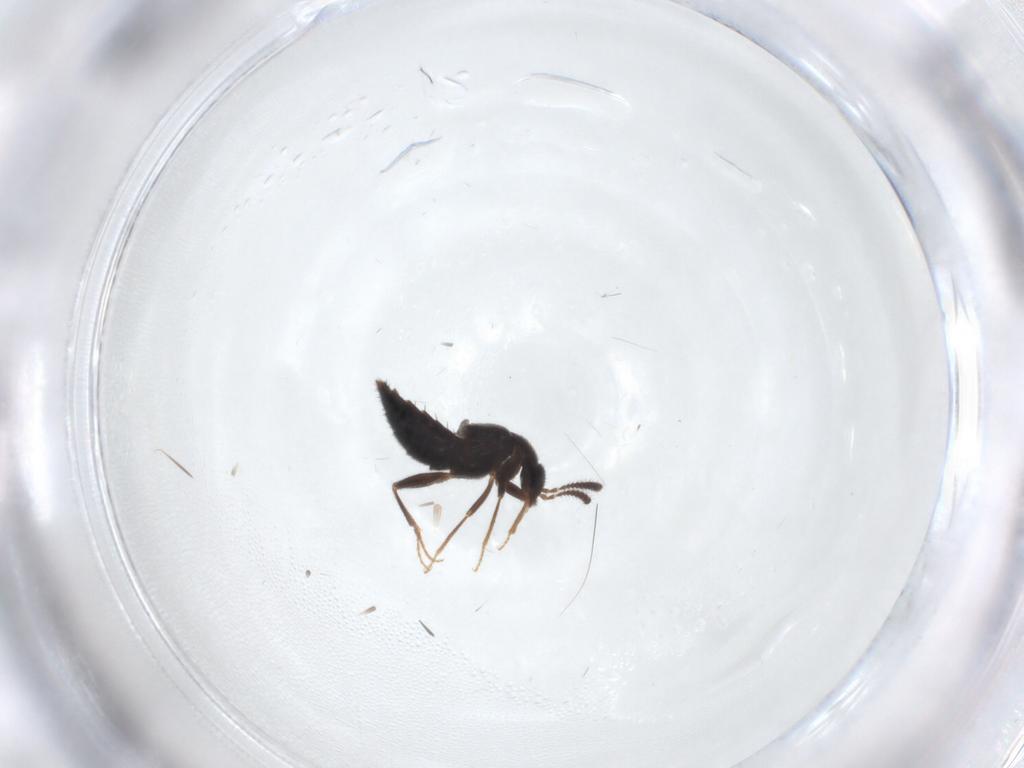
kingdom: Animalia
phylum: Arthropoda
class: Insecta
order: Coleoptera
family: Staphylinidae
